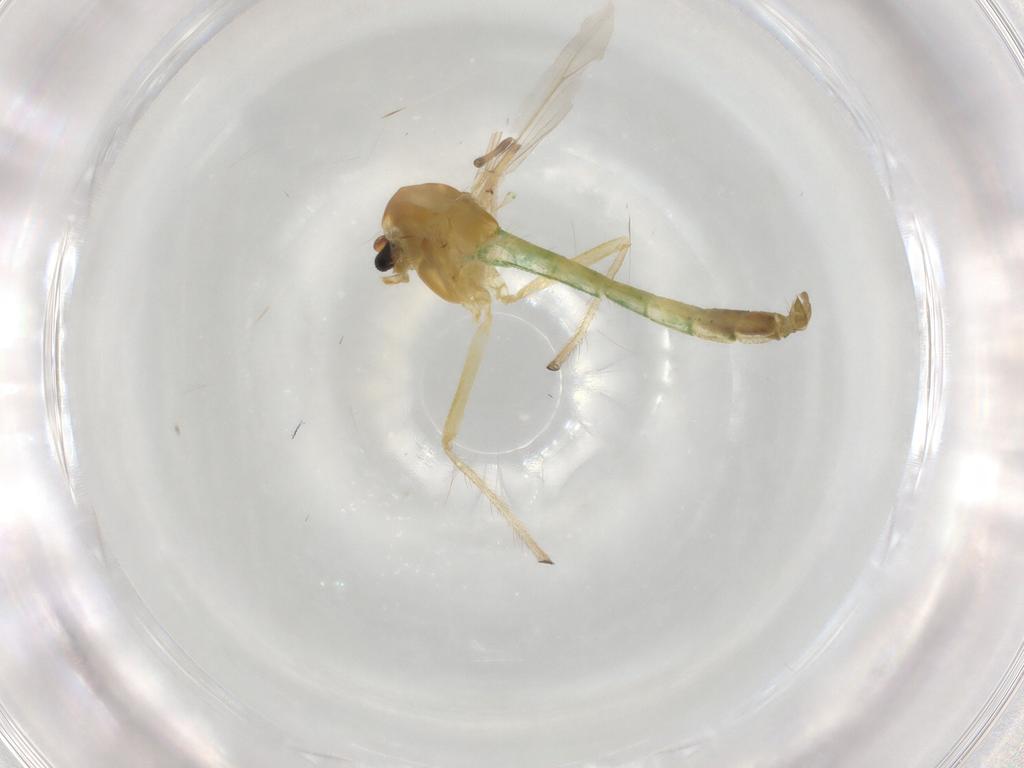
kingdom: Animalia
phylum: Arthropoda
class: Insecta
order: Diptera
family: Chironomidae
